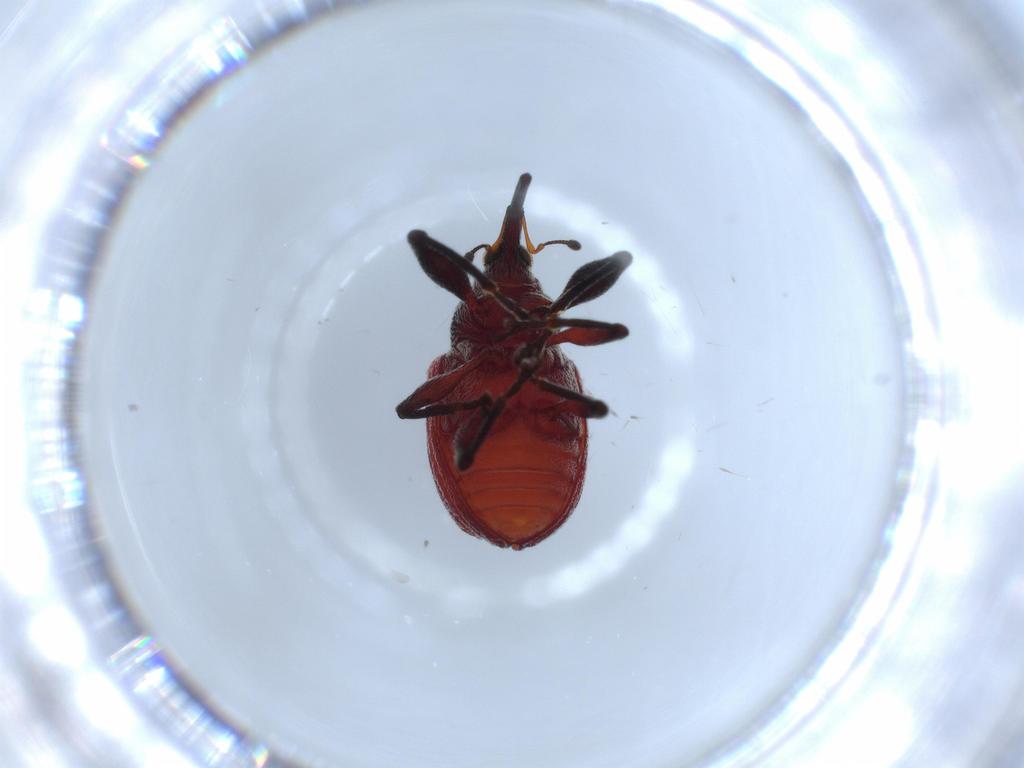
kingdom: Animalia
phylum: Arthropoda
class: Insecta
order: Coleoptera
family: Curculionidae
